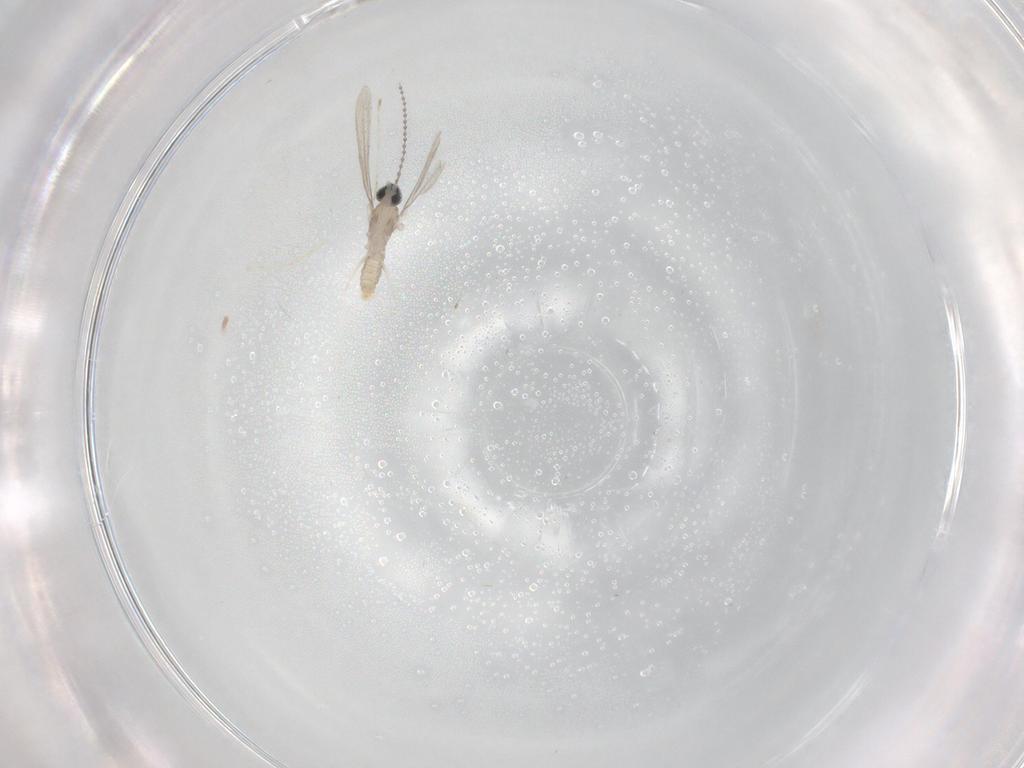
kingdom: Animalia
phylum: Arthropoda
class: Insecta
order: Diptera
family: Cecidomyiidae
